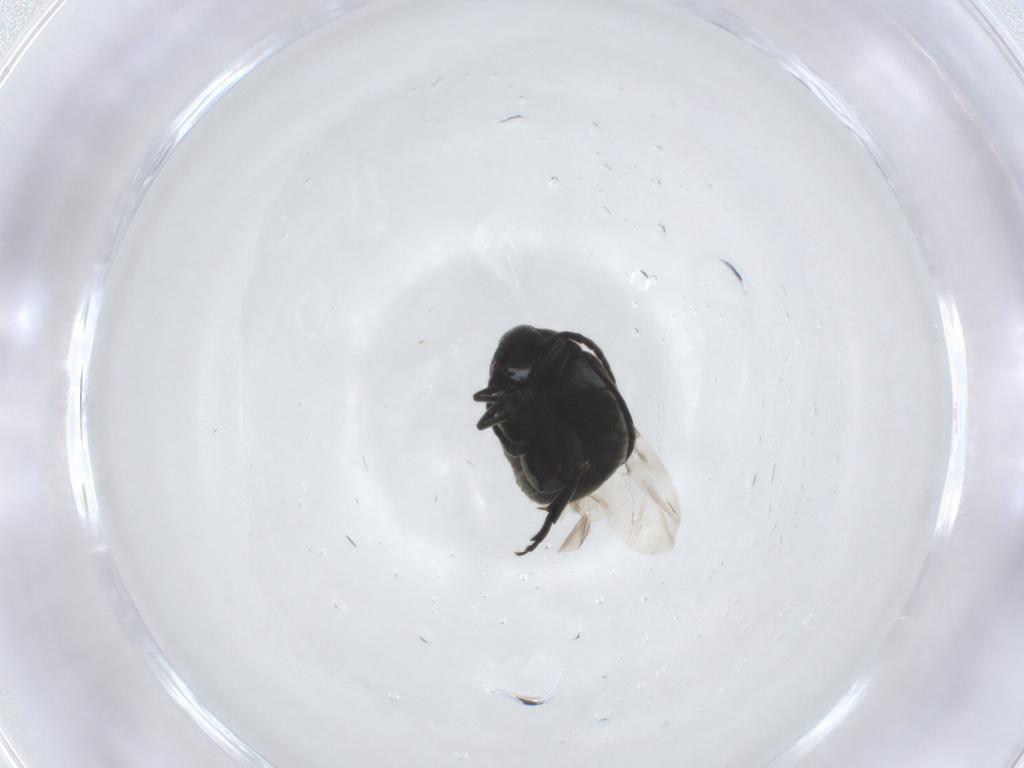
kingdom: Animalia
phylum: Arthropoda
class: Insecta
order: Coleoptera
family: Chrysomelidae
